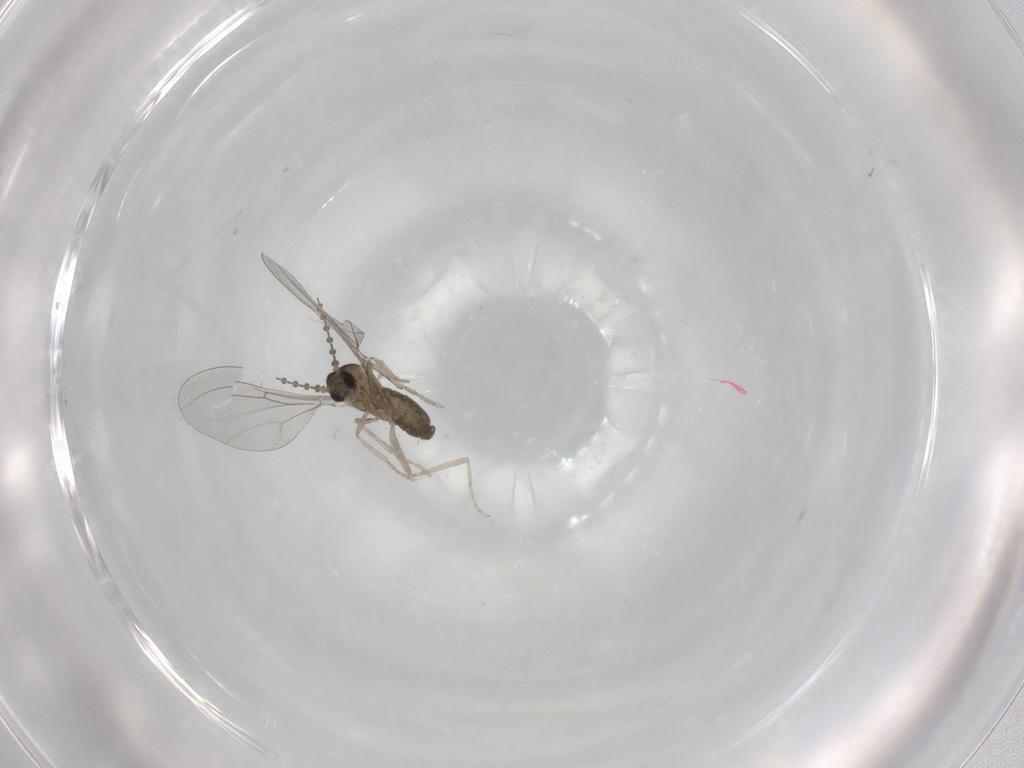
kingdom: Animalia
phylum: Arthropoda
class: Insecta
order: Diptera
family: Cecidomyiidae
